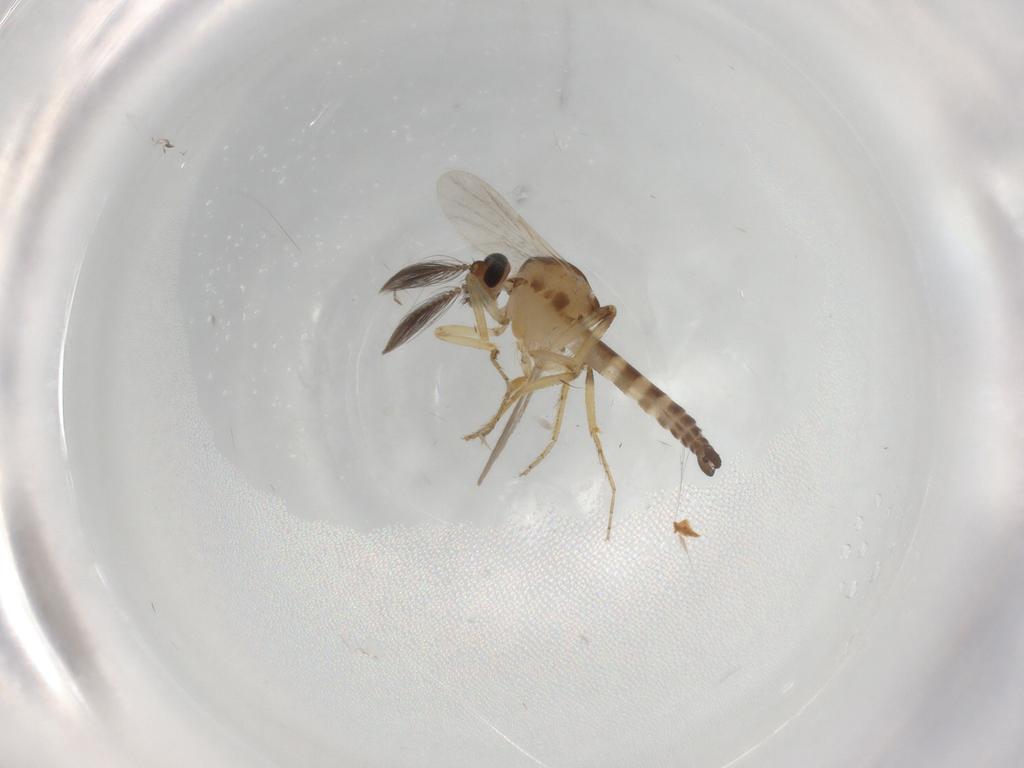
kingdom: Animalia
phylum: Arthropoda
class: Insecta
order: Diptera
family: Ceratopogonidae
